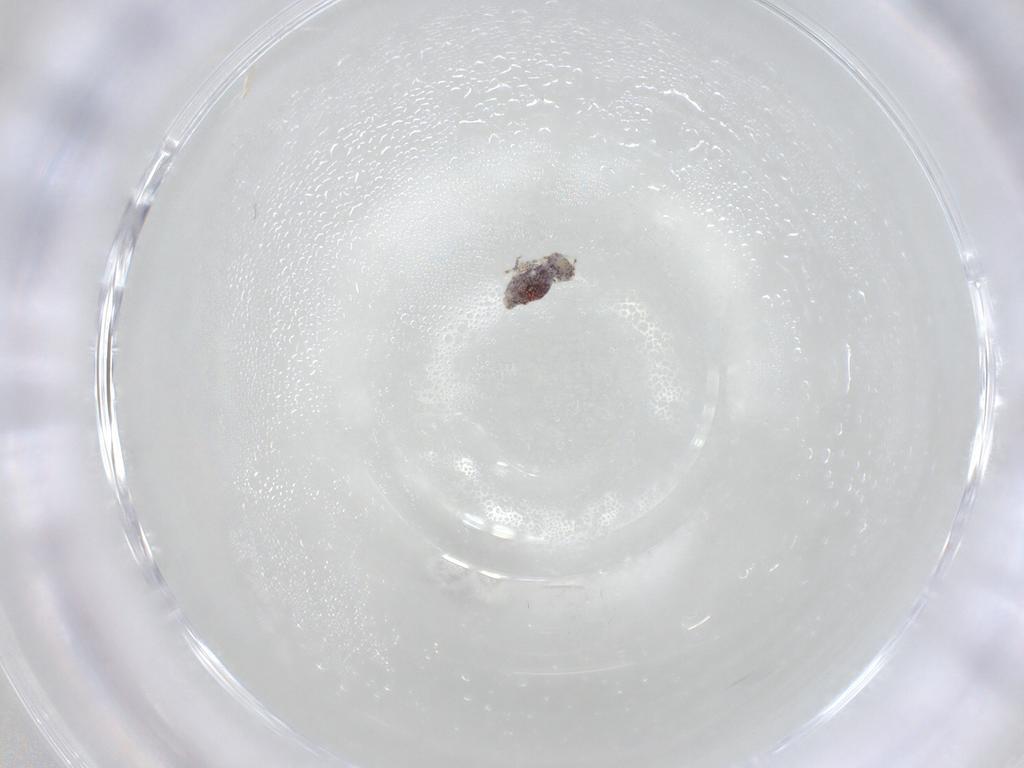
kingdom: Animalia
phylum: Arthropoda
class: Collembola
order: Symphypleona
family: Bourletiellidae
